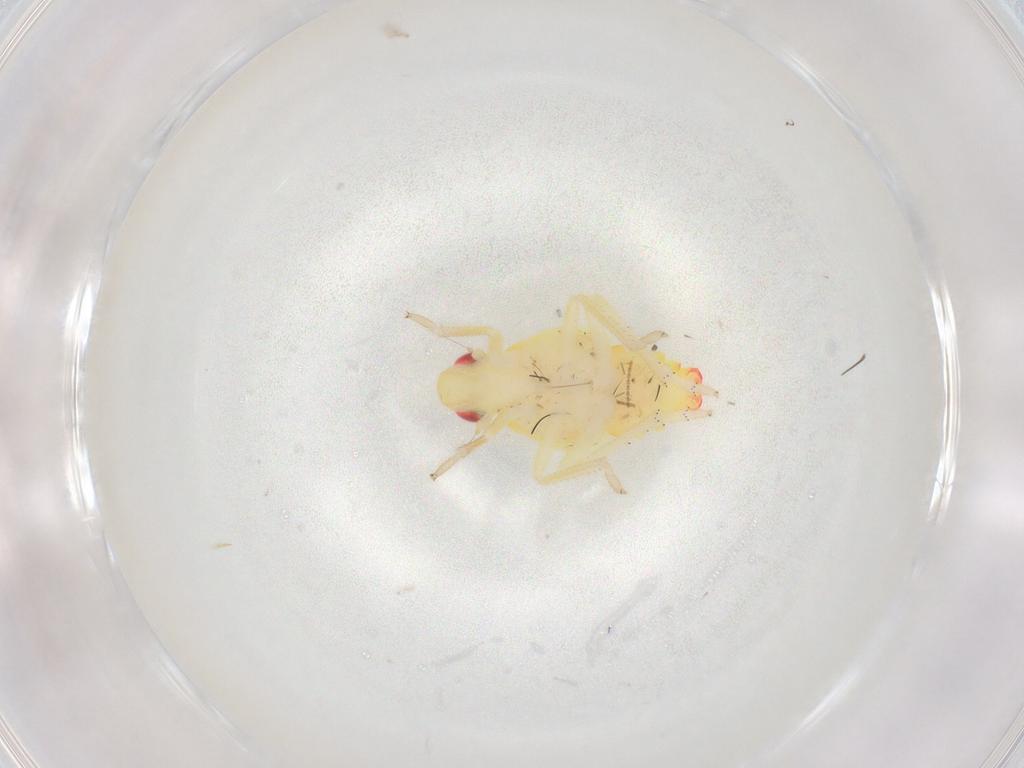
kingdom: Animalia
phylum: Arthropoda
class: Insecta
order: Hemiptera
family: Tropiduchidae
